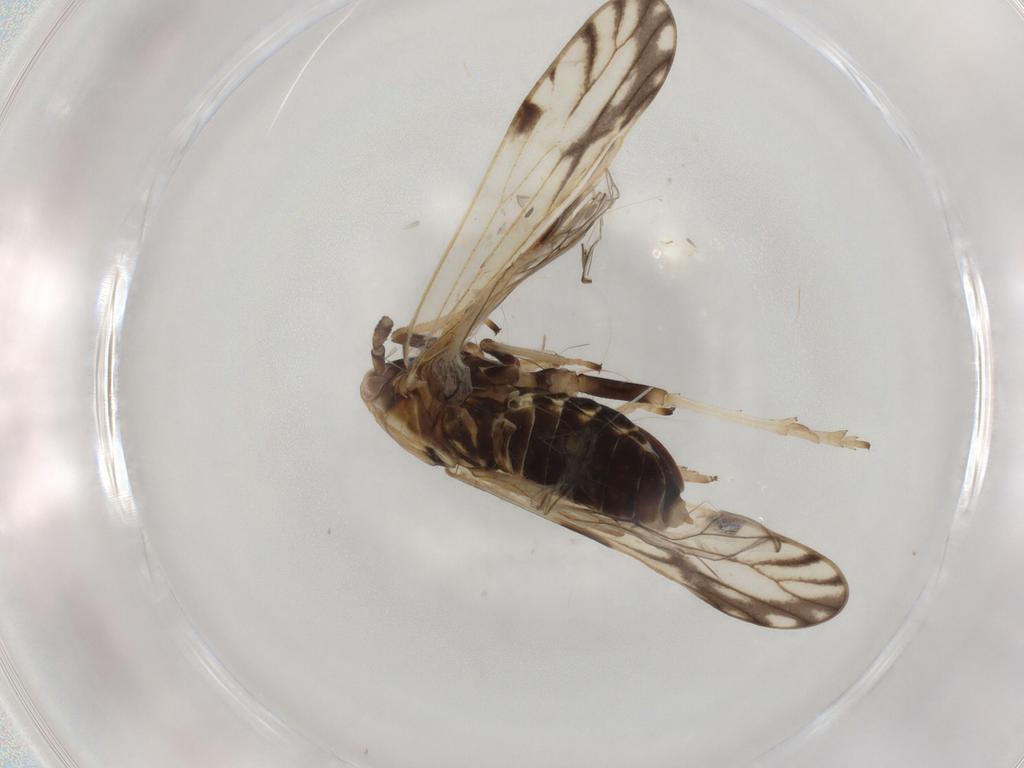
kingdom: Animalia
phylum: Arthropoda
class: Insecta
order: Hemiptera
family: Delphacidae
